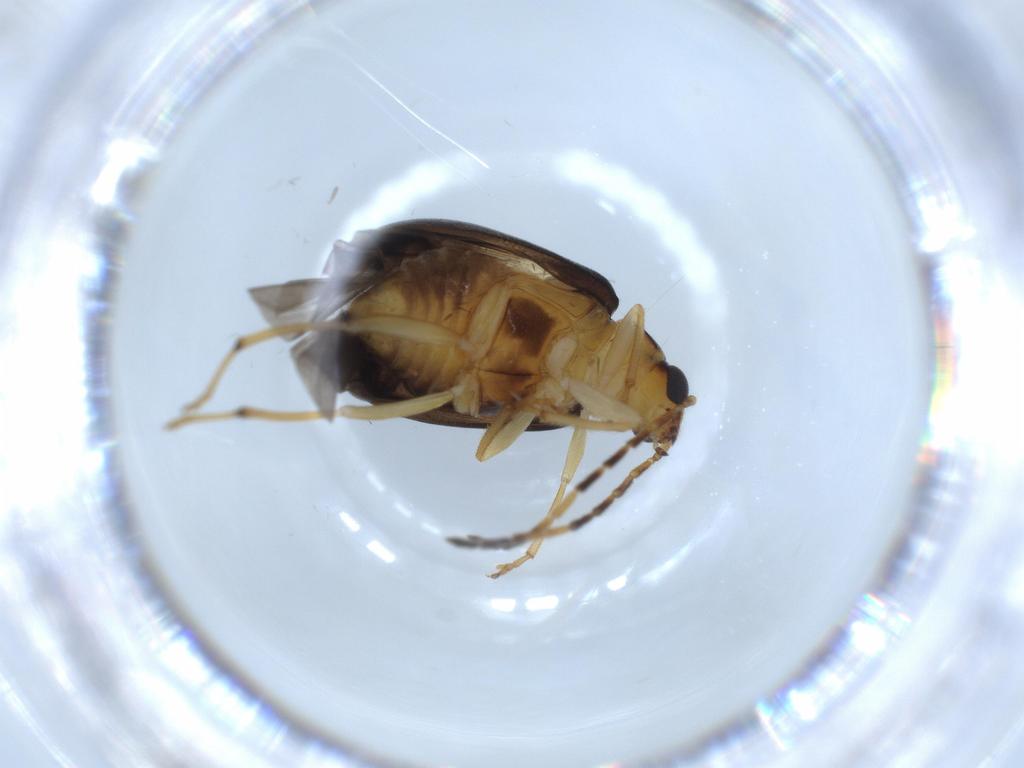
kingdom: Animalia
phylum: Arthropoda
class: Insecta
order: Coleoptera
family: Chrysomelidae
